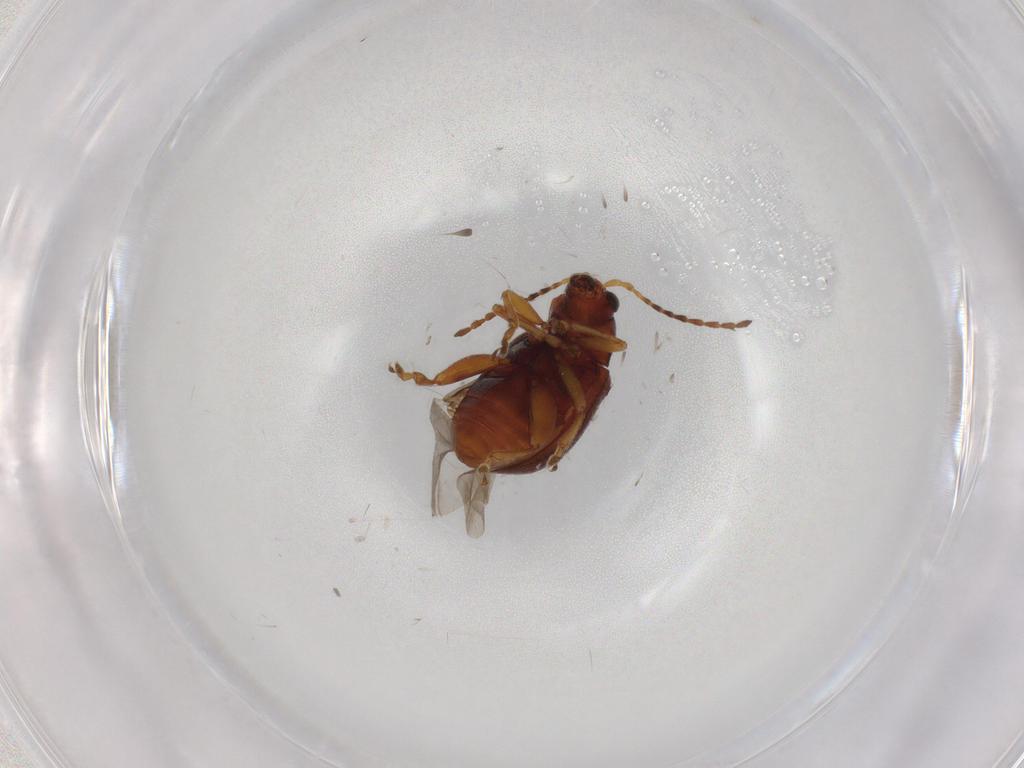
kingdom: Animalia
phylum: Arthropoda
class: Insecta
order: Coleoptera
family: Chrysomelidae
